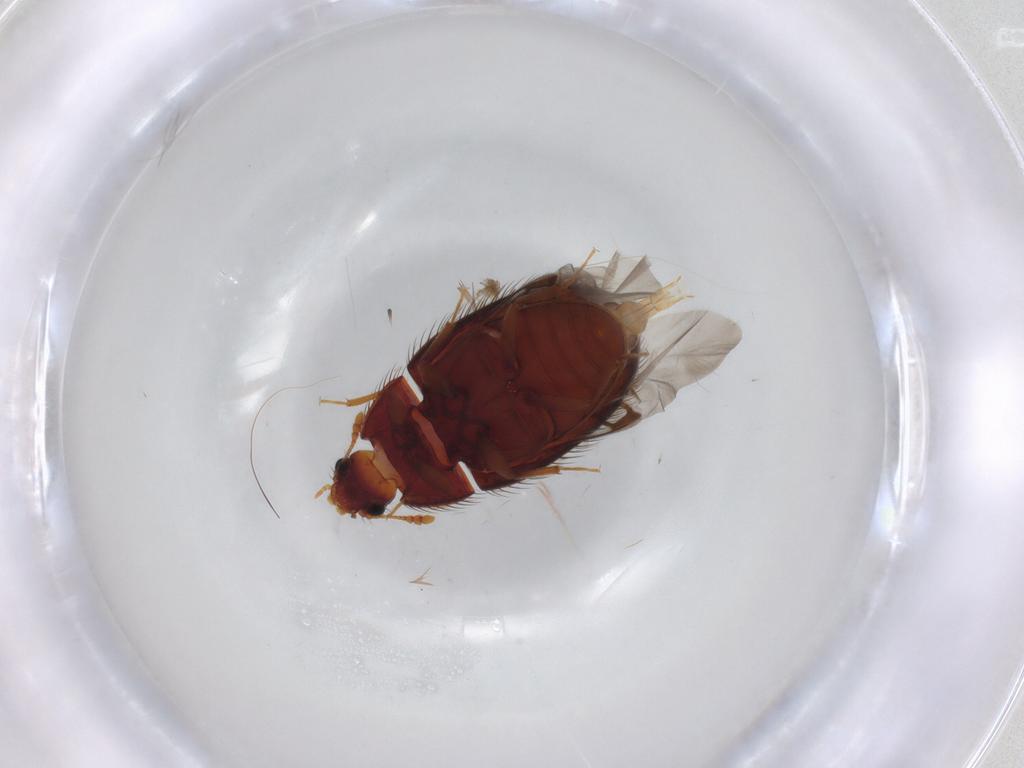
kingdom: Animalia
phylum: Arthropoda
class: Insecta
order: Coleoptera
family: Biphyllidae
